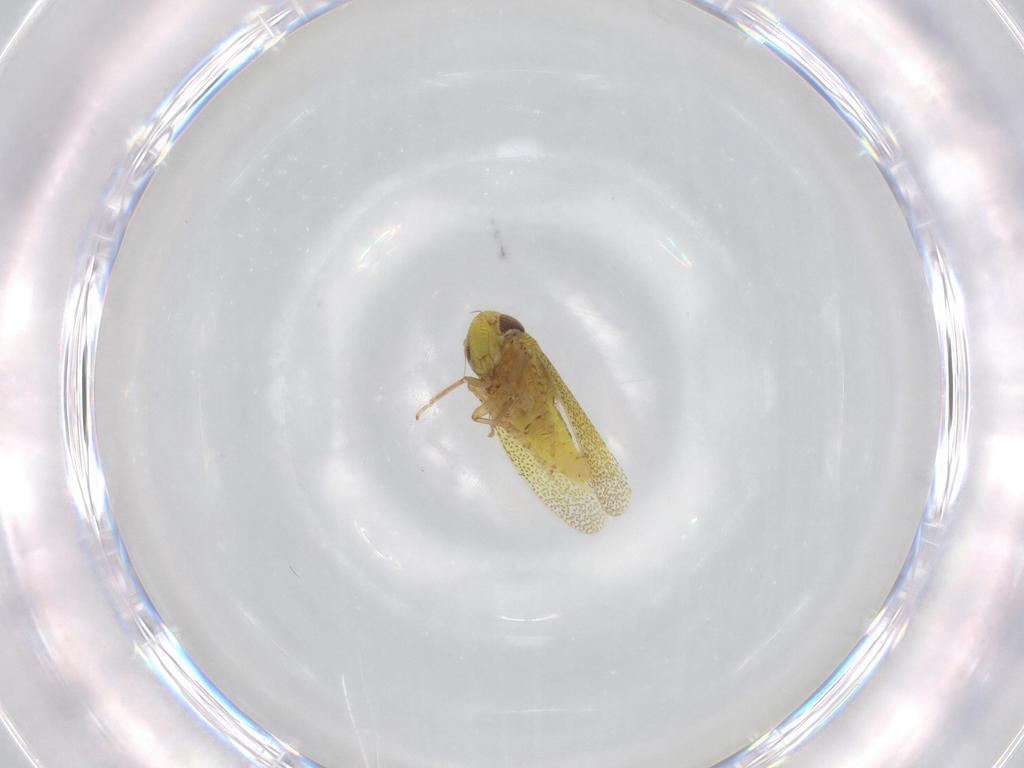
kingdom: Animalia
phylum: Arthropoda
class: Insecta
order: Hemiptera
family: Cicadellidae
